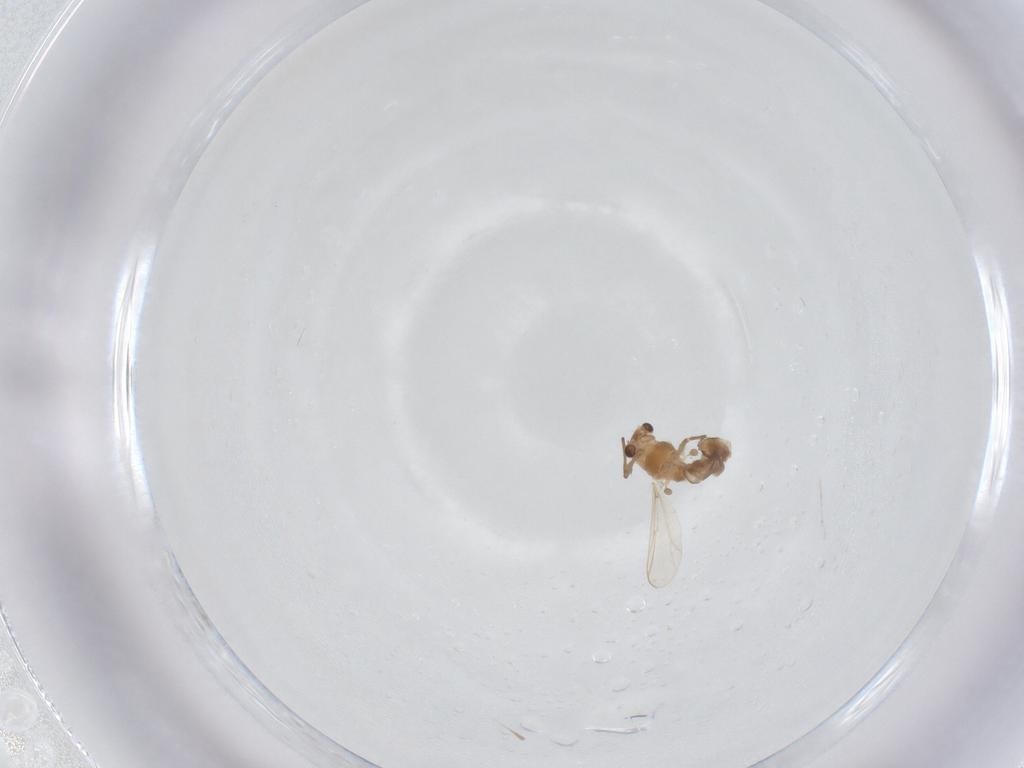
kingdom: Animalia
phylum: Arthropoda
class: Insecta
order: Diptera
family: Chironomidae
